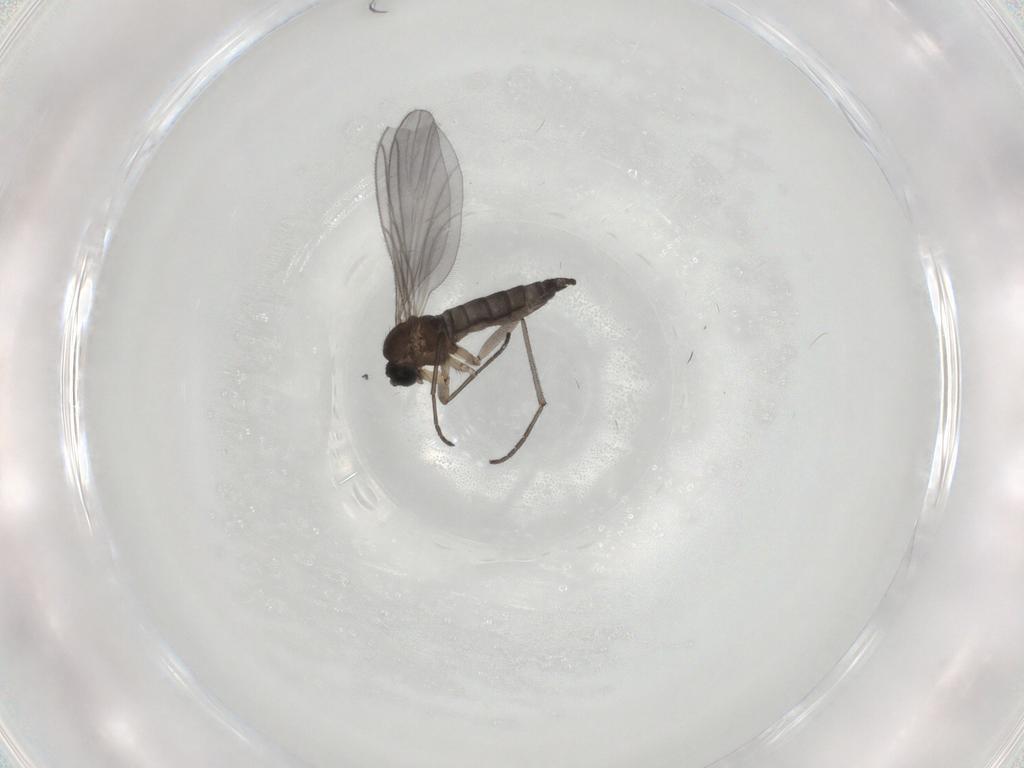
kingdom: Animalia
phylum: Arthropoda
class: Insecta
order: Diptera
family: Sciaridae
